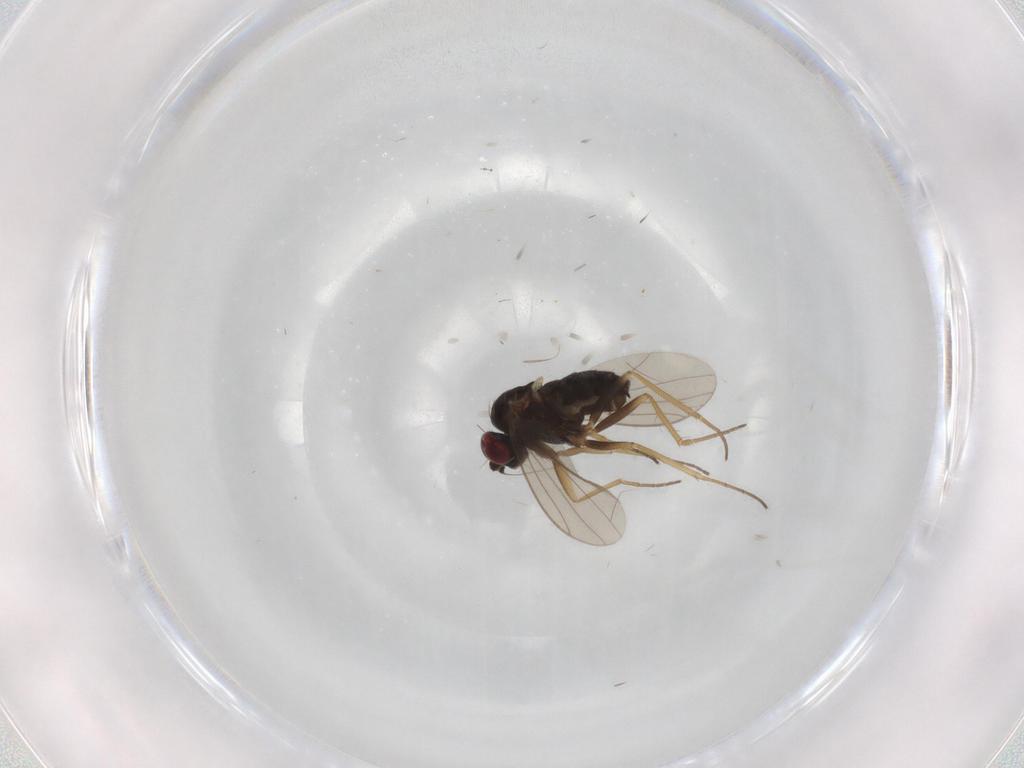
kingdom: Animalia
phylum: Arthropoda
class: Insecta
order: Diptera
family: Dolichopodidae
